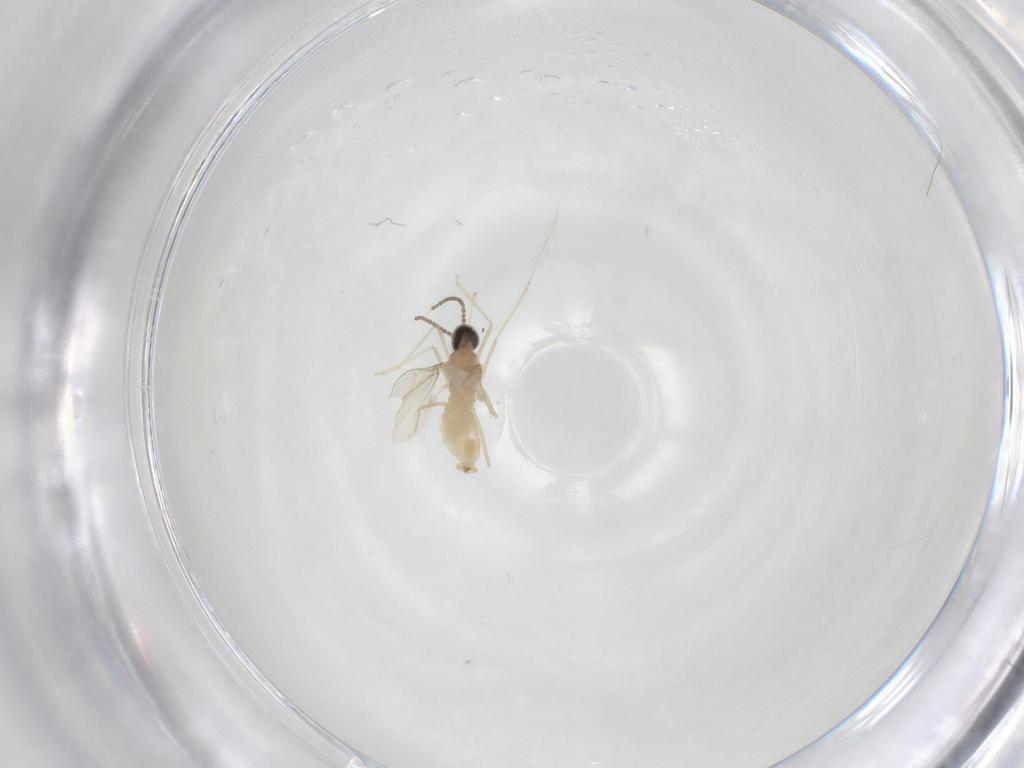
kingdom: Animalia
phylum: Arthropoda
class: Insecta
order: Diptera
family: Cecidomyiidae
